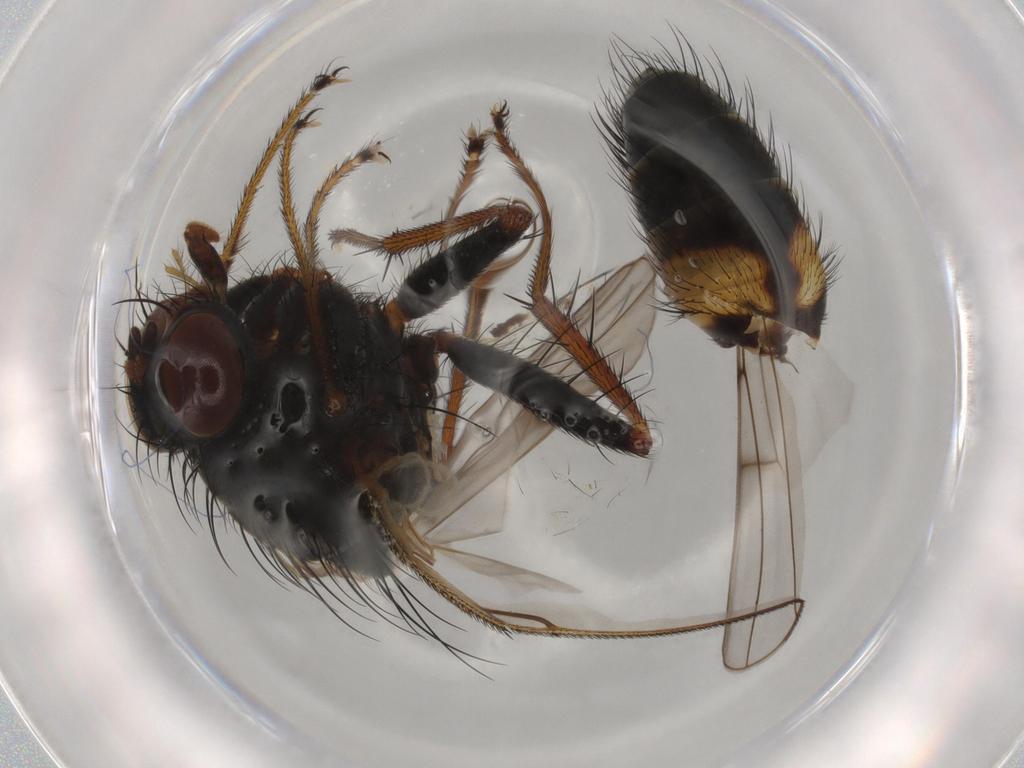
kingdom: Animalia
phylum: Arthropoda
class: Insecta
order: Diptera
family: Muscidae
